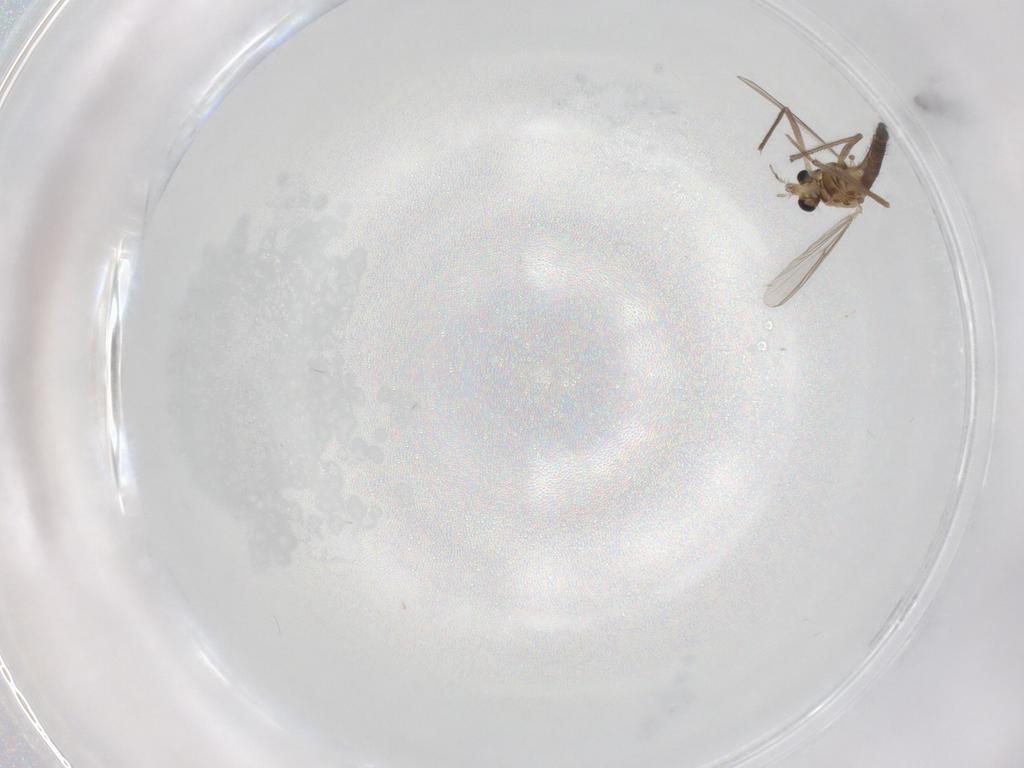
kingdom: Animalia
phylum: Arthropoda
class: Insecta
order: Diptera
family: Chironomidae
